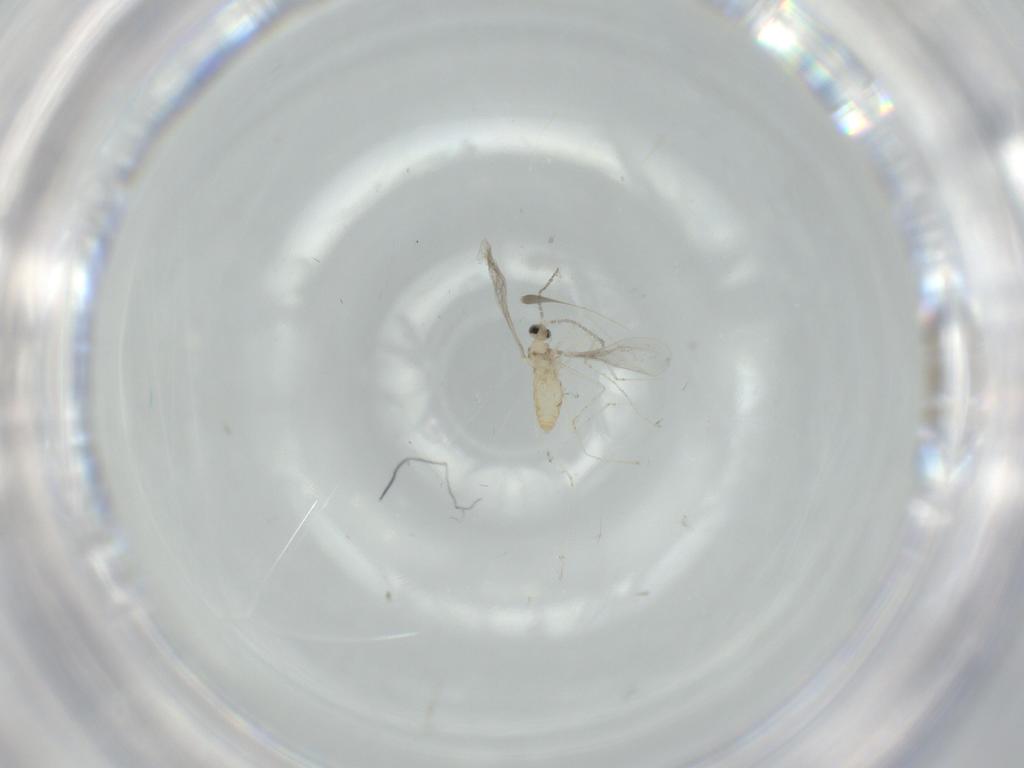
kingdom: Animalia
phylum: Arthropoda
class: Insecta
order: Diptera
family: Cecidomyiidae
